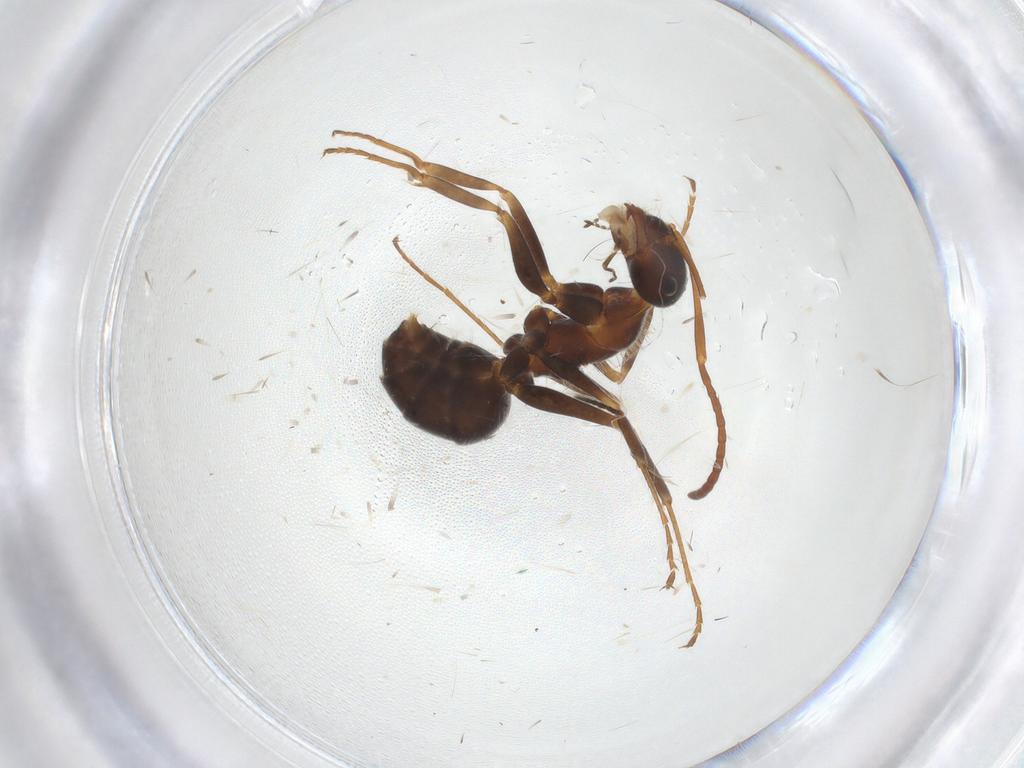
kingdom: Animalia
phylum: Arthropoda
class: Insecta
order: Hymenoptera
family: Formicidae
